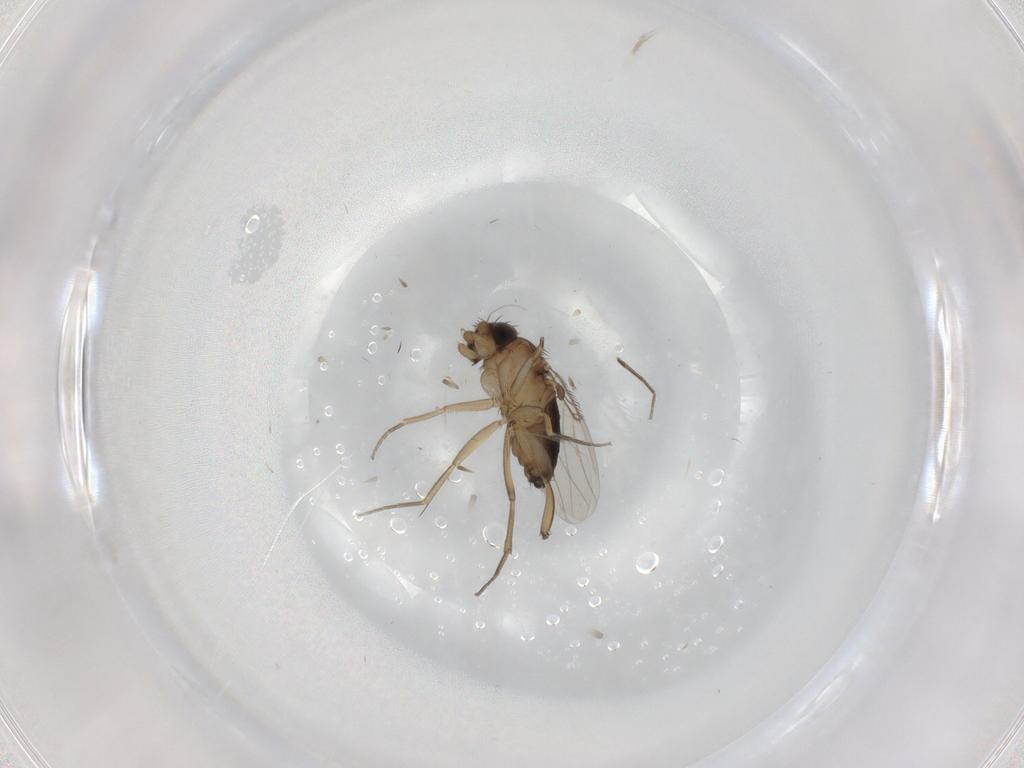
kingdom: Animalia
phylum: Arthropoda
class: Insecta
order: Diptera
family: Phoridae
